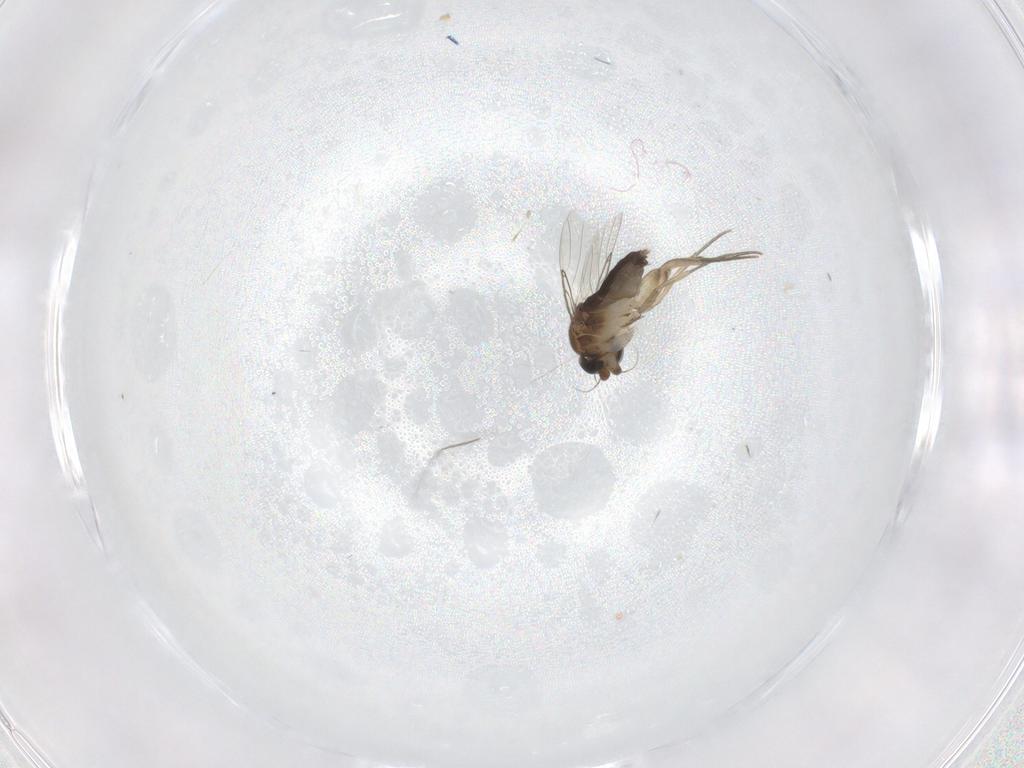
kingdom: Animalia
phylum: Arthropoda
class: Insecta
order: Diptera
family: Phoridae
